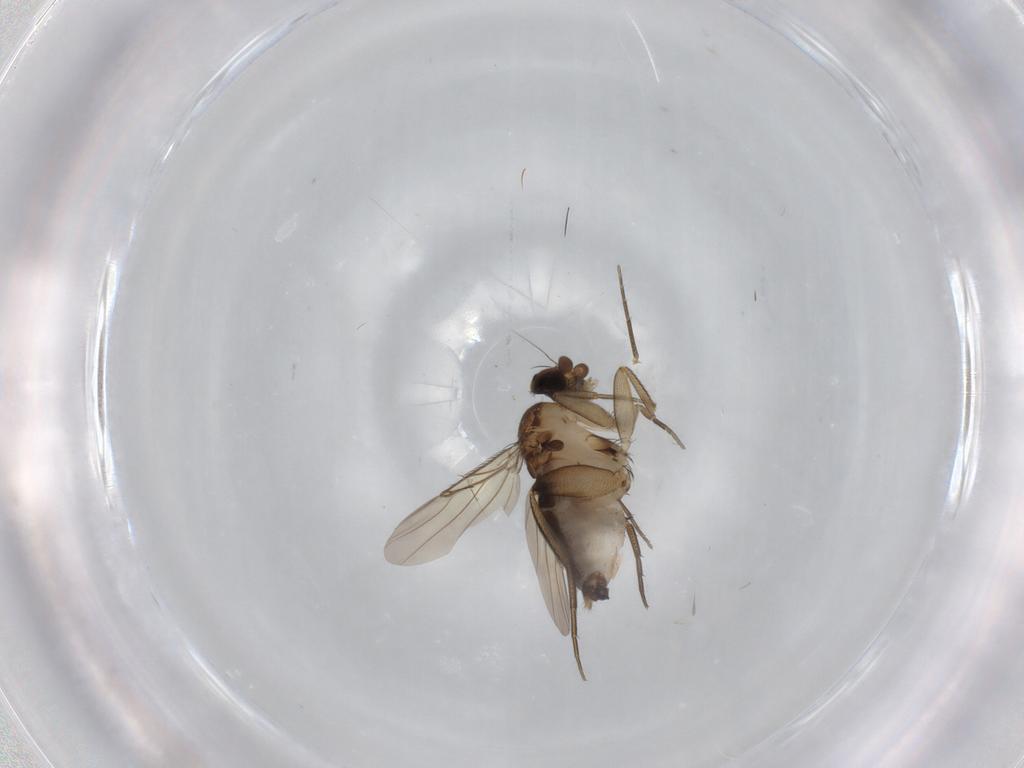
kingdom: Animalia
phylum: Arthropoda
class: Insecta
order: Diptera
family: Phoridae
